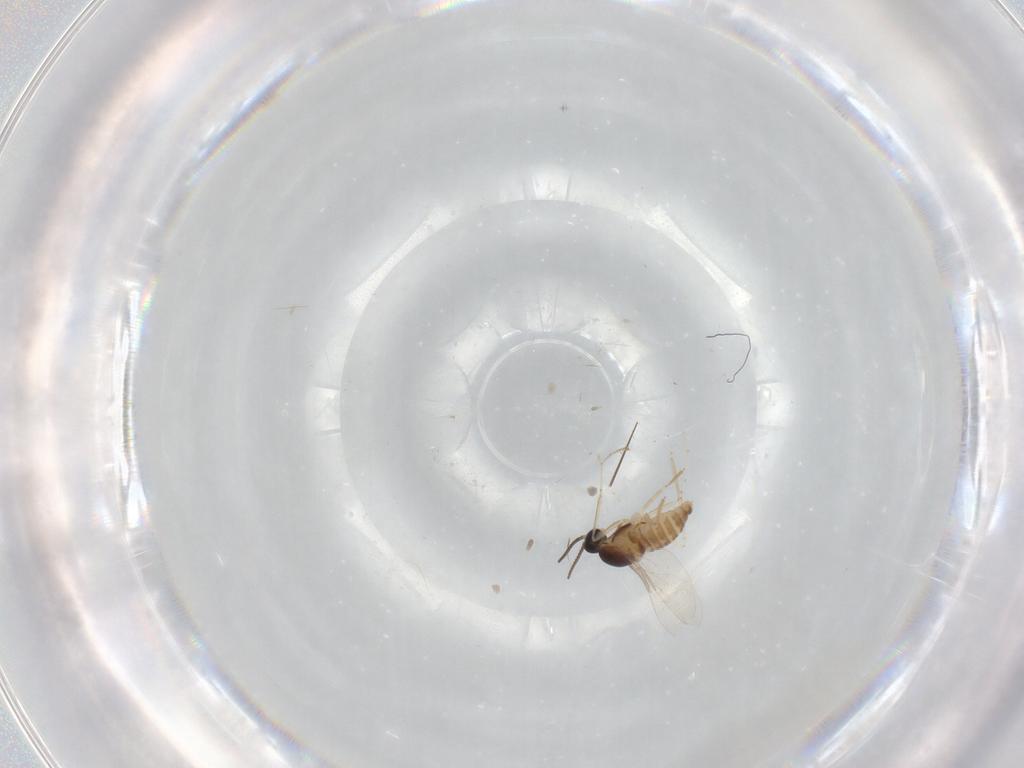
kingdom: Animalia
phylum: Arthropoda
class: Insecta
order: Diptera
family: Cecidomyiidae
